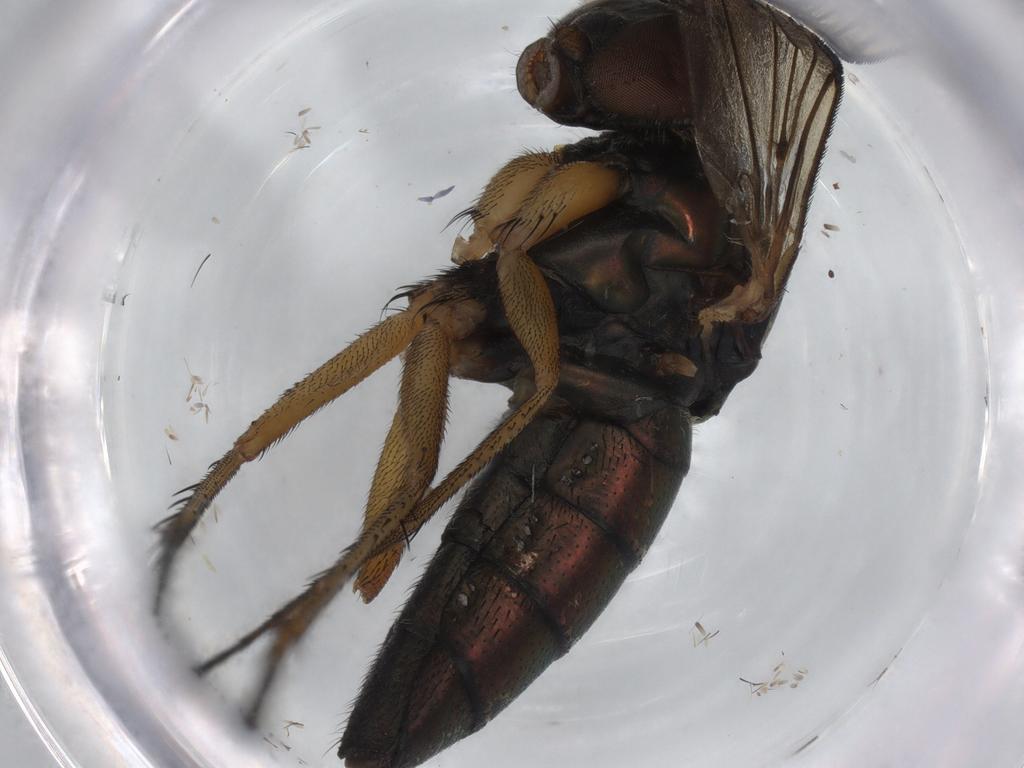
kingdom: Animalia
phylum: Arthropoda
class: Insecta
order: Diptera
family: Dolichopodidae
